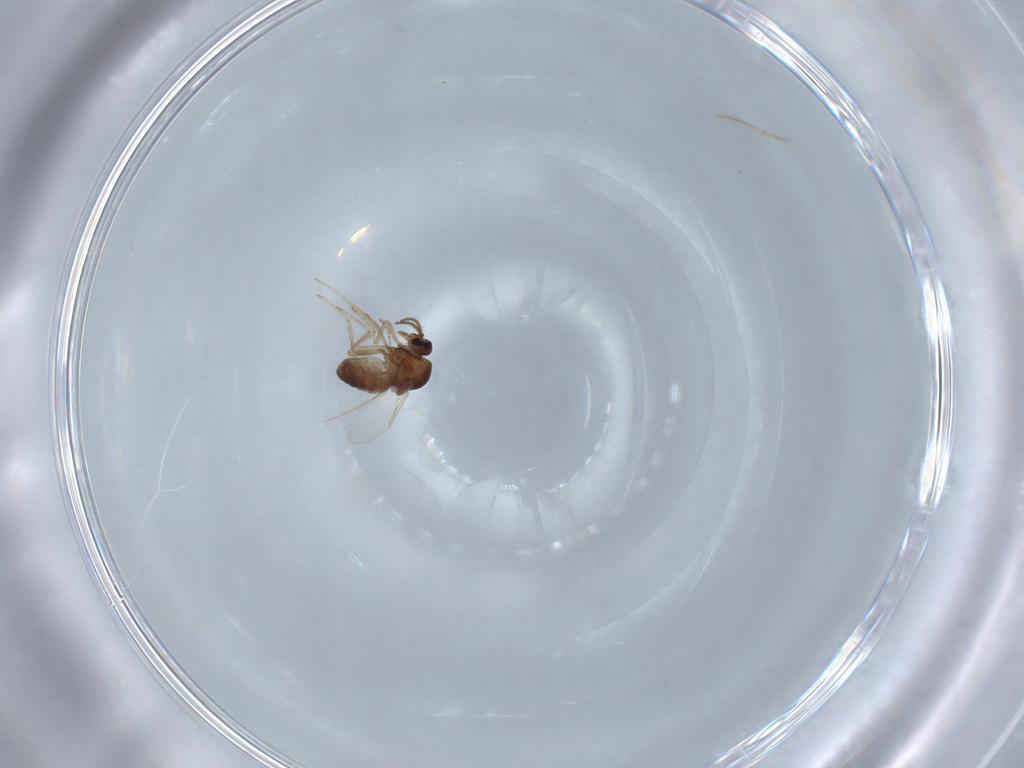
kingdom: Animalia
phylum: Arthropoda
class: Insecta
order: Diptera
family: Ceratopogonidae
